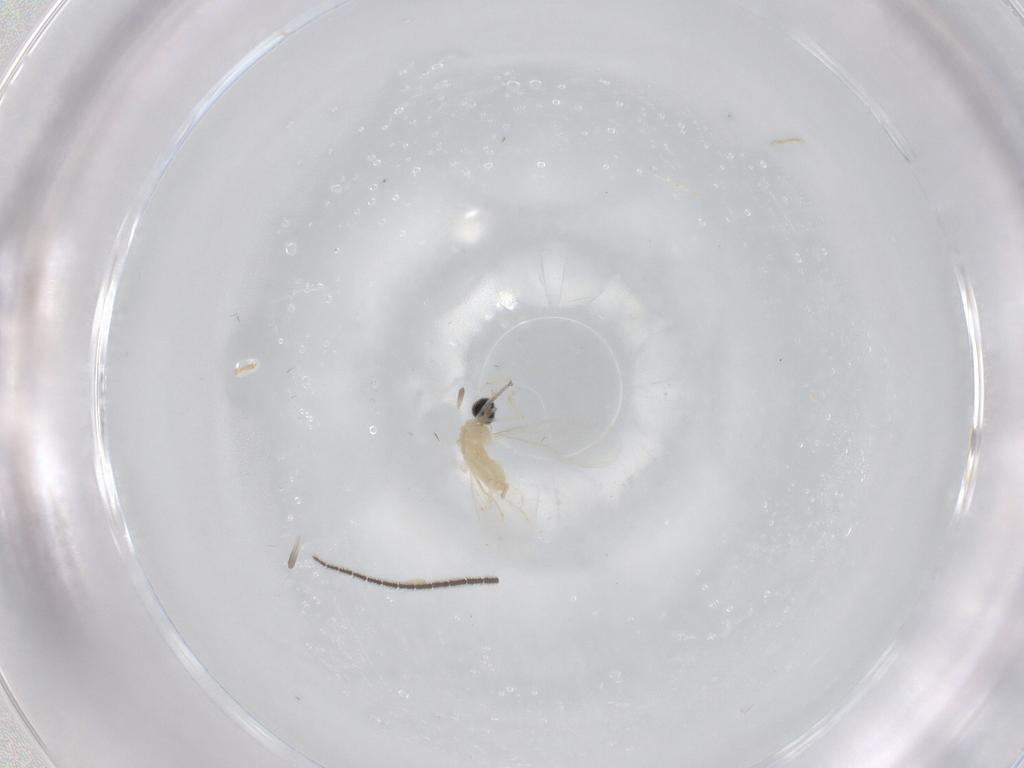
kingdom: Animalia
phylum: Arthropoda
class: Insecta
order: Diptera
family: Cecidomyiidae
